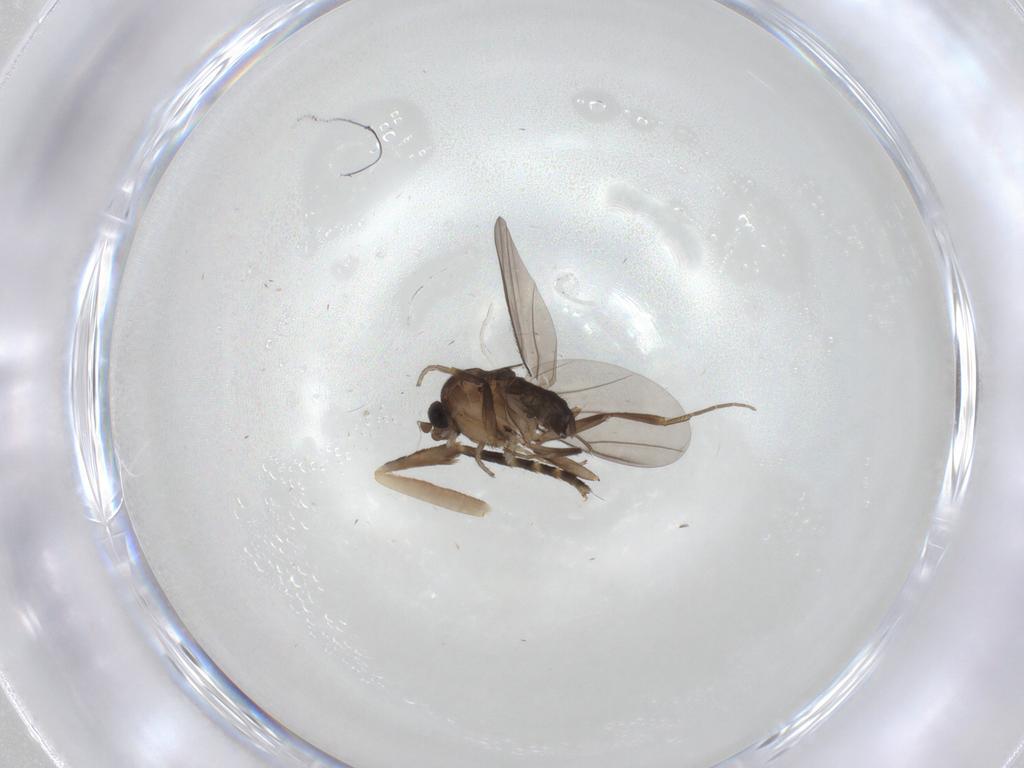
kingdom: Animalia
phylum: Arthropoda
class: Insecta
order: Diptera
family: Phoridae
